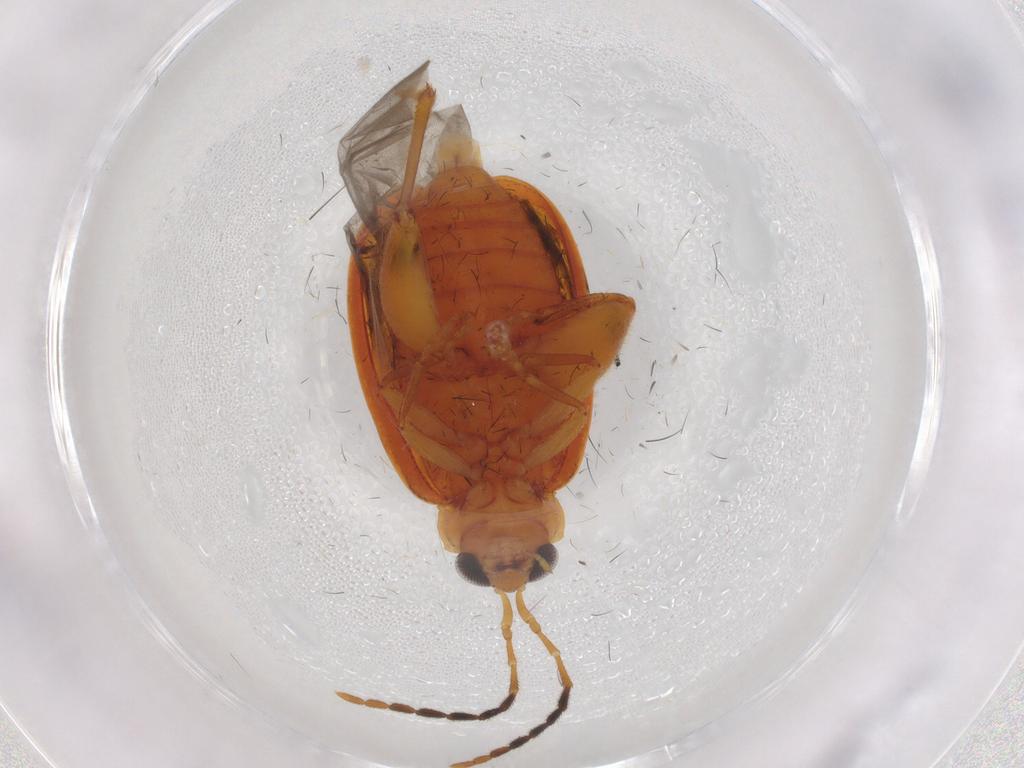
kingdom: Animalia
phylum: Arthropoda
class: Insecta
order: Coleoptera
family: Chrysomelidae
